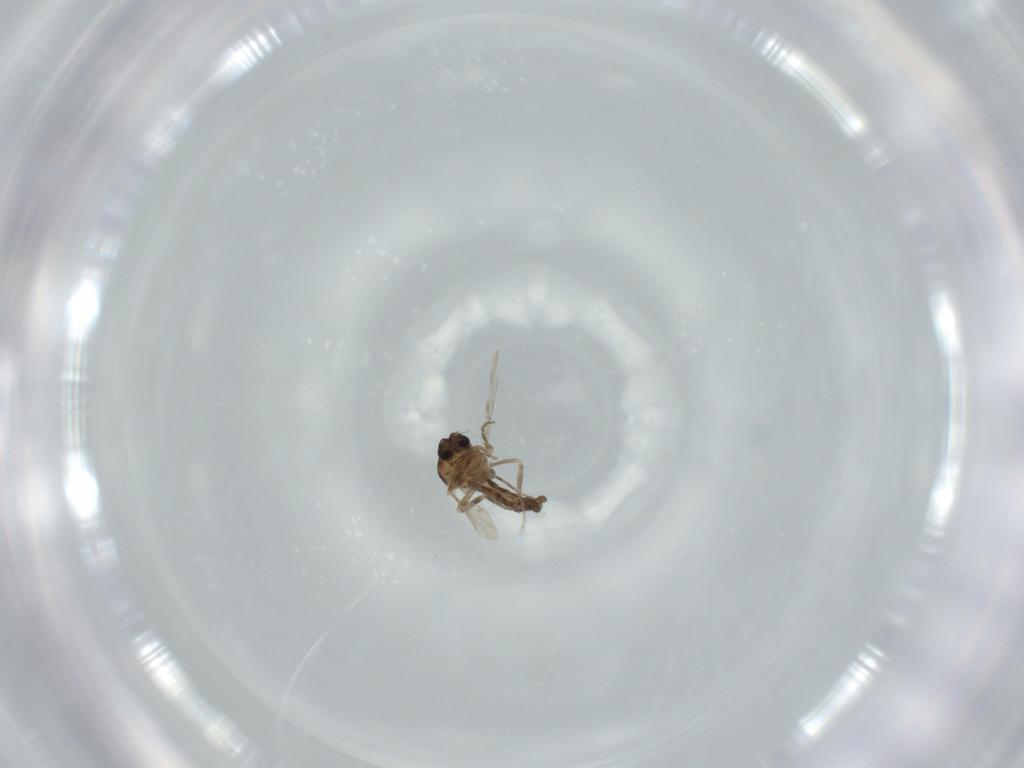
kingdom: Animalia
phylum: Arthropoda
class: Insecta
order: Diptera
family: Ceratopogonidae
